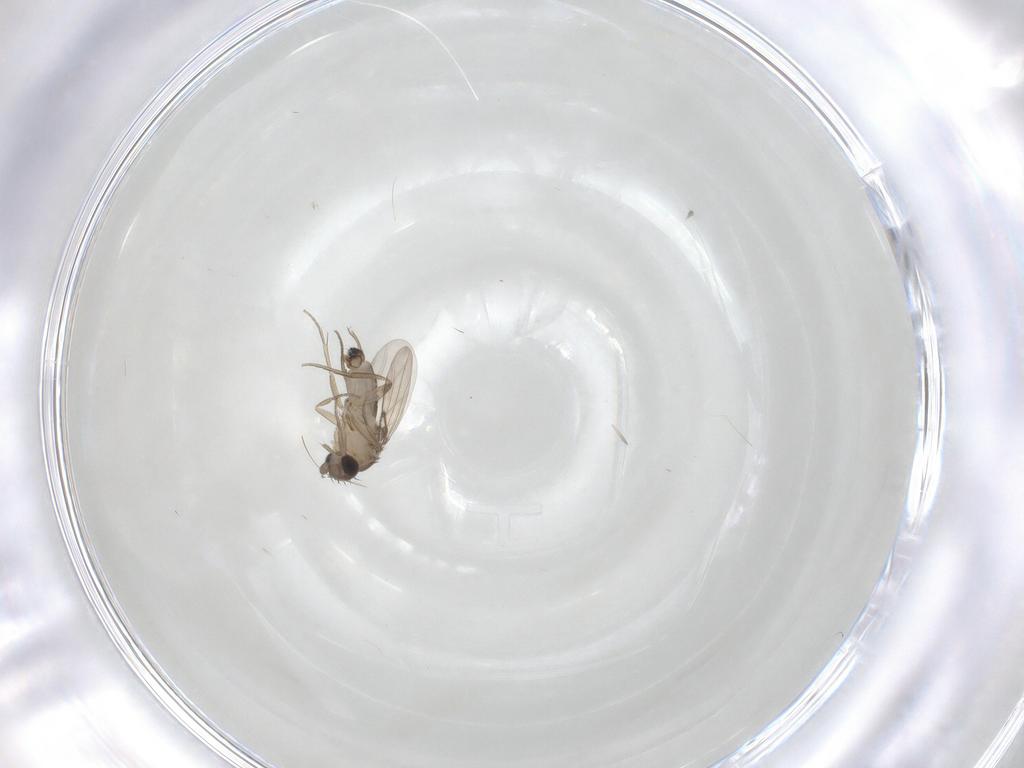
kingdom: Animalia
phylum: Arthropoda
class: Insecta
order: Diptera
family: Phoridae
